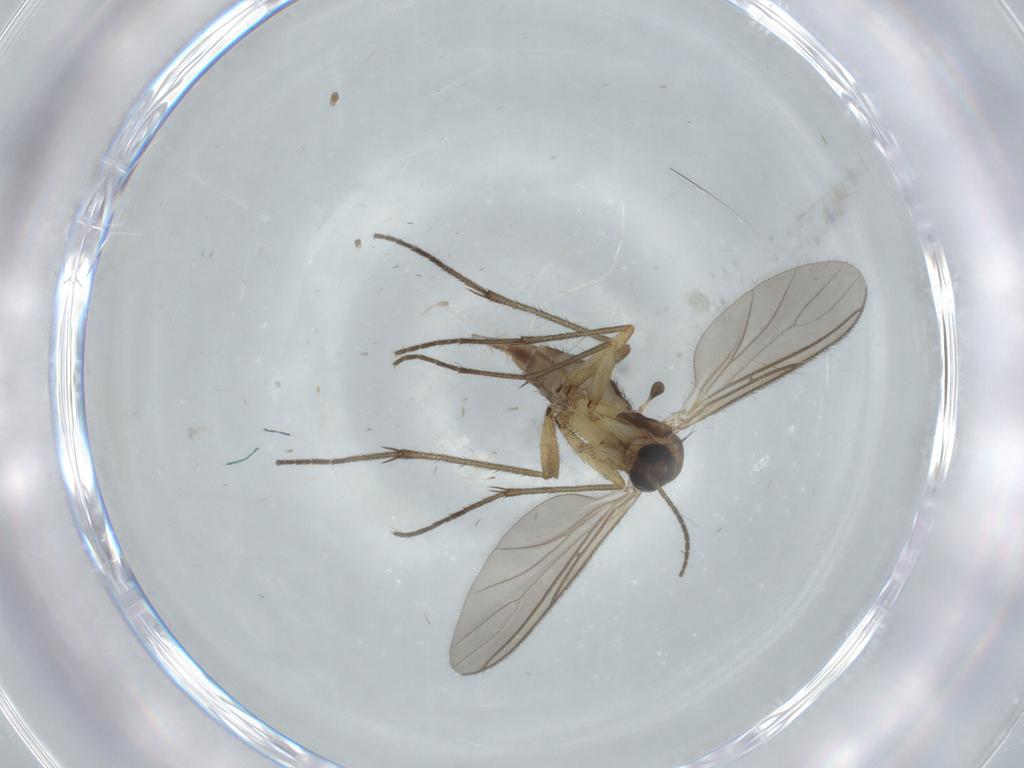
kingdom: Animalia
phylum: Arthropoda
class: Insecta
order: Diptera
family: Sciaridae
